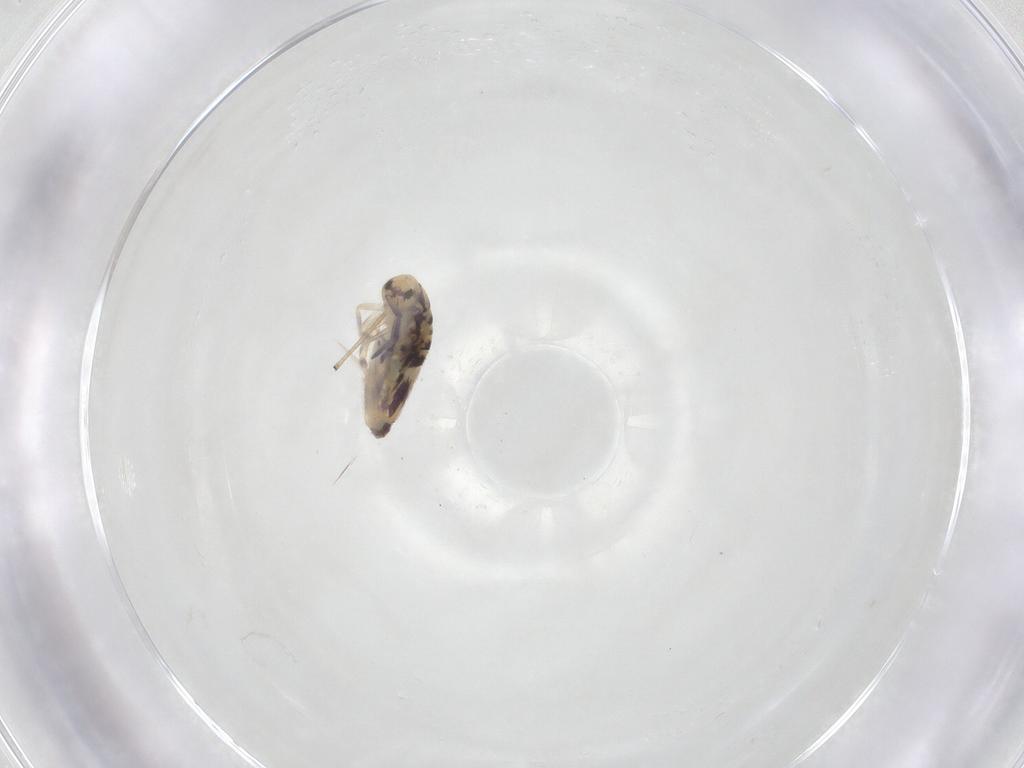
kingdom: Animalia
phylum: Arthropoda
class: Collembola
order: Entomobryomorpha
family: Entomobryidae
